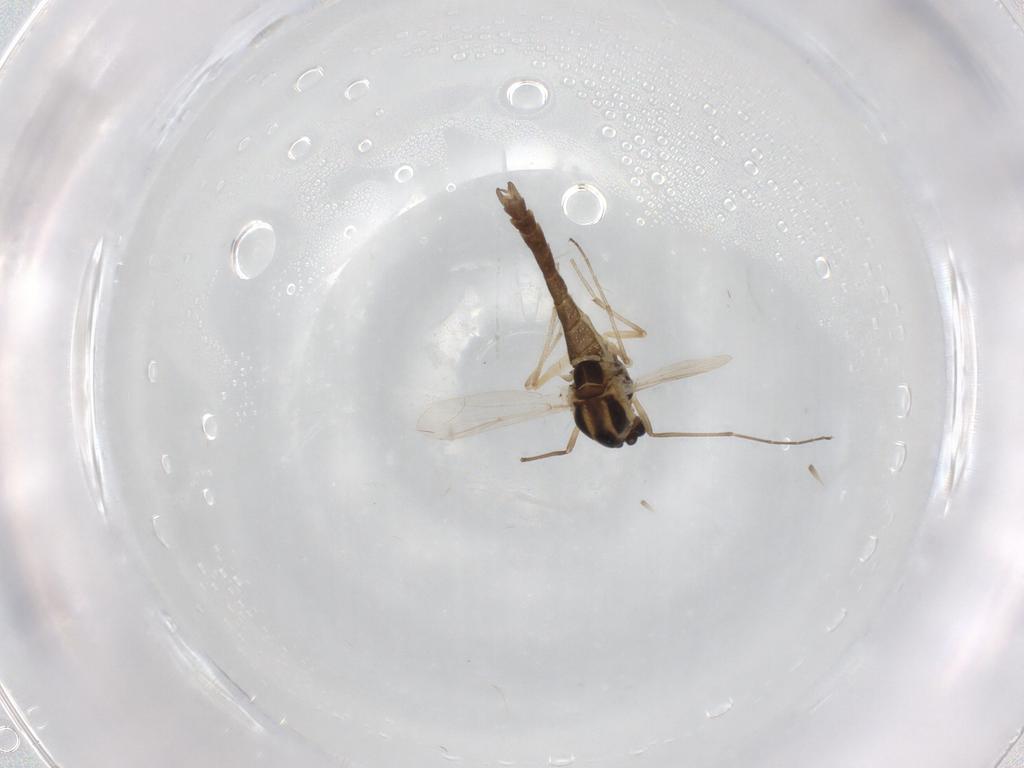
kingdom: Animalia
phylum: Arthropoda
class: Insecta
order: Diptera
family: Chironomidae
